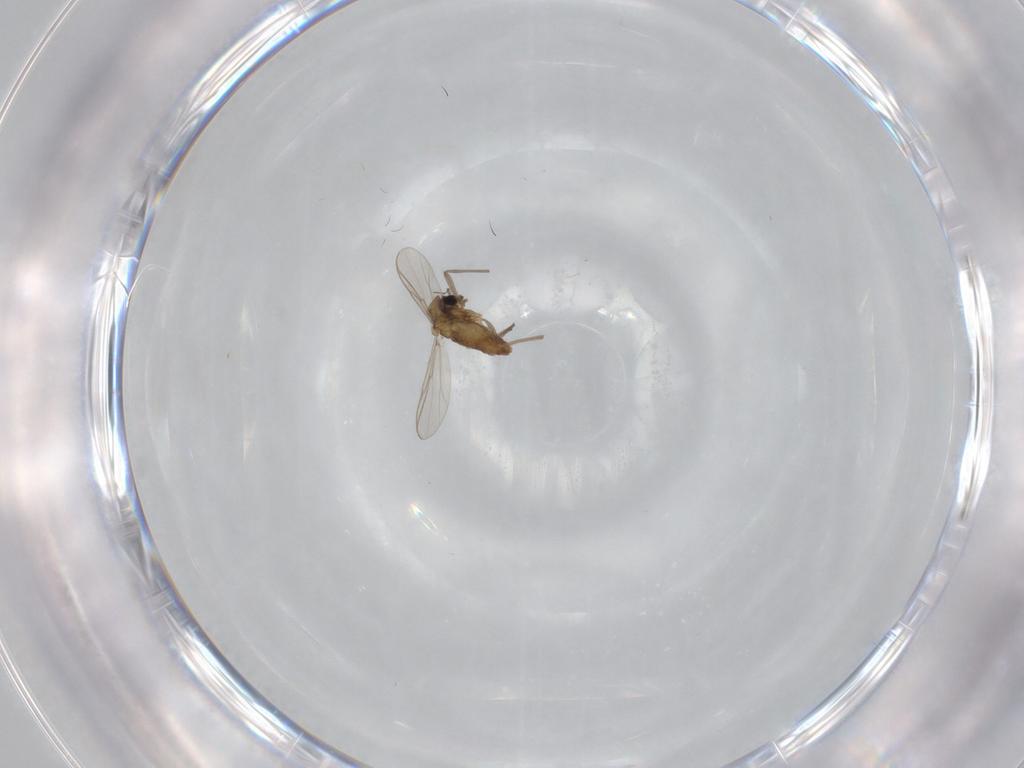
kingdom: Animalia
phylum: Arthropoda
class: Insecta
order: Diptera
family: Chironomidae
